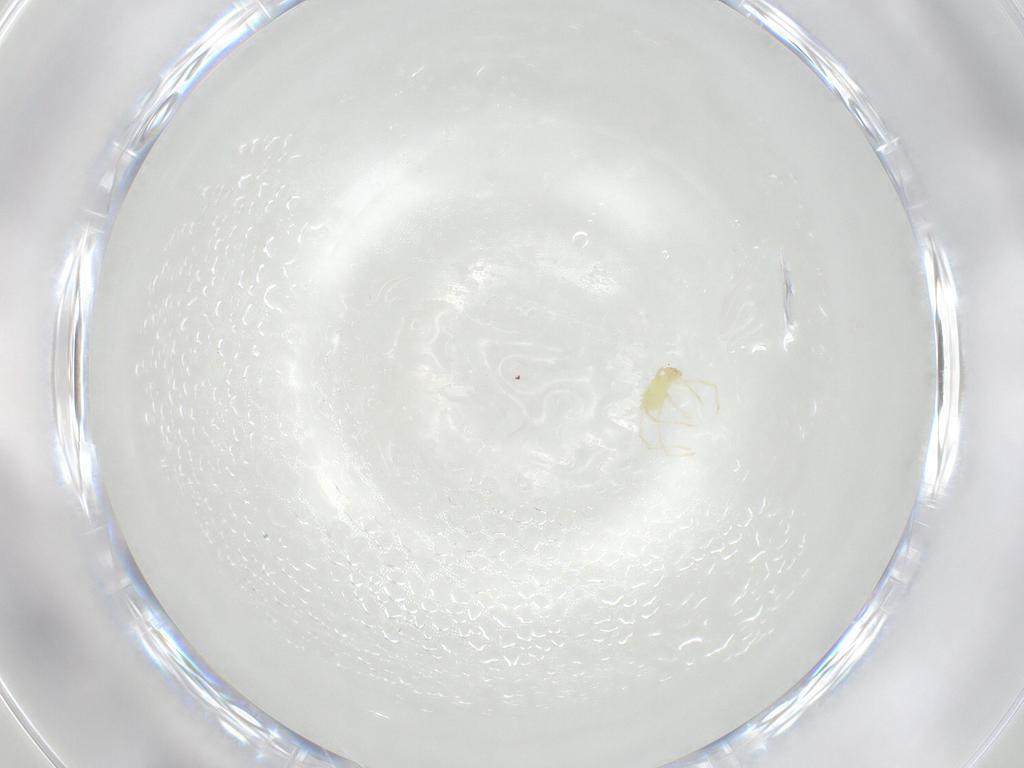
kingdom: Animalia
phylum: Arthropoda
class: Arachnida
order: Trombidiformes
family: Erythraeidae
